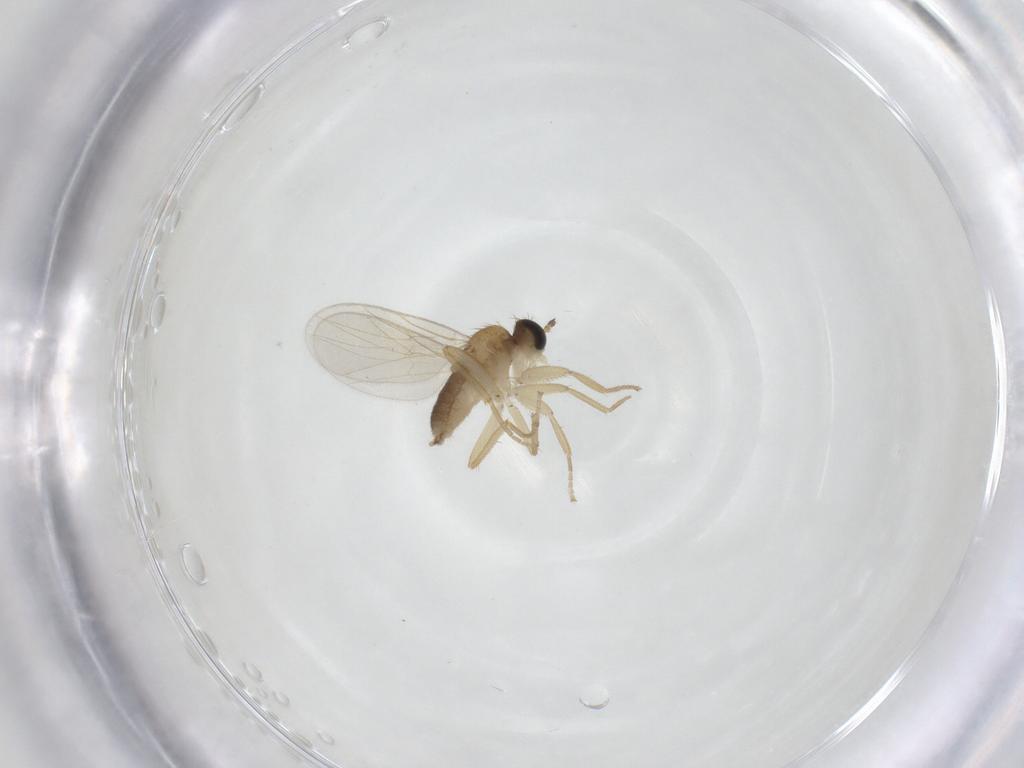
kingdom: Animalia
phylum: Arthropoda
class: Insecta
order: Diptera
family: Hybotidae
